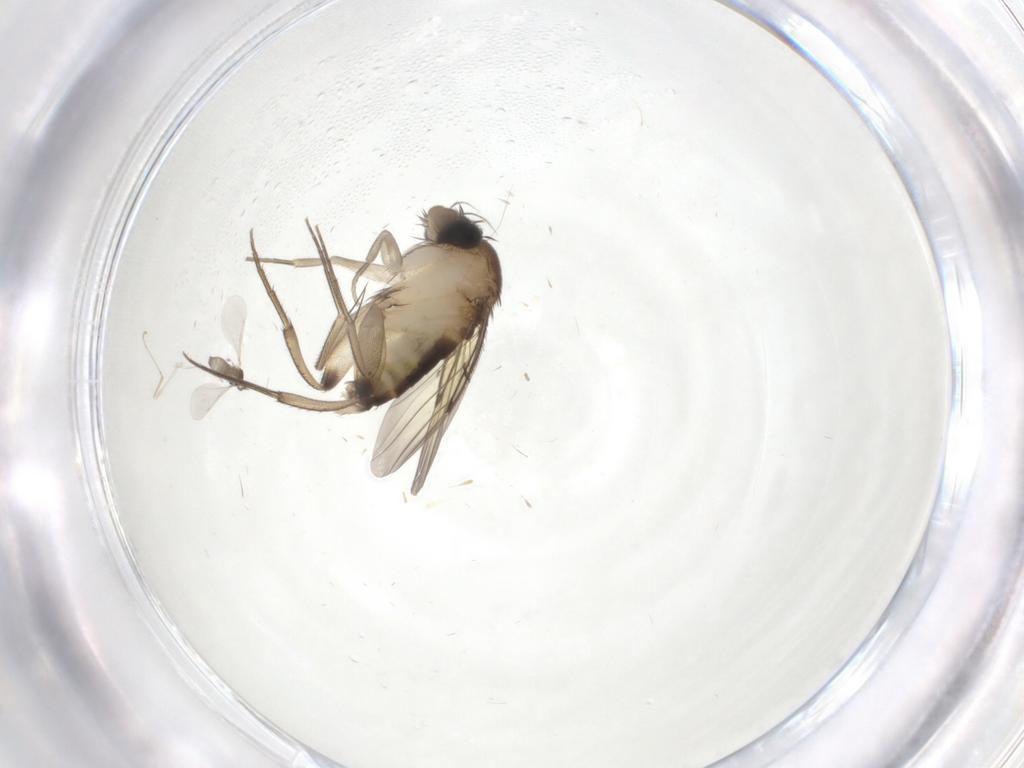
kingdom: Animalia
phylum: Arthropoda
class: Insecta
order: Diptera
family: Phoridae
